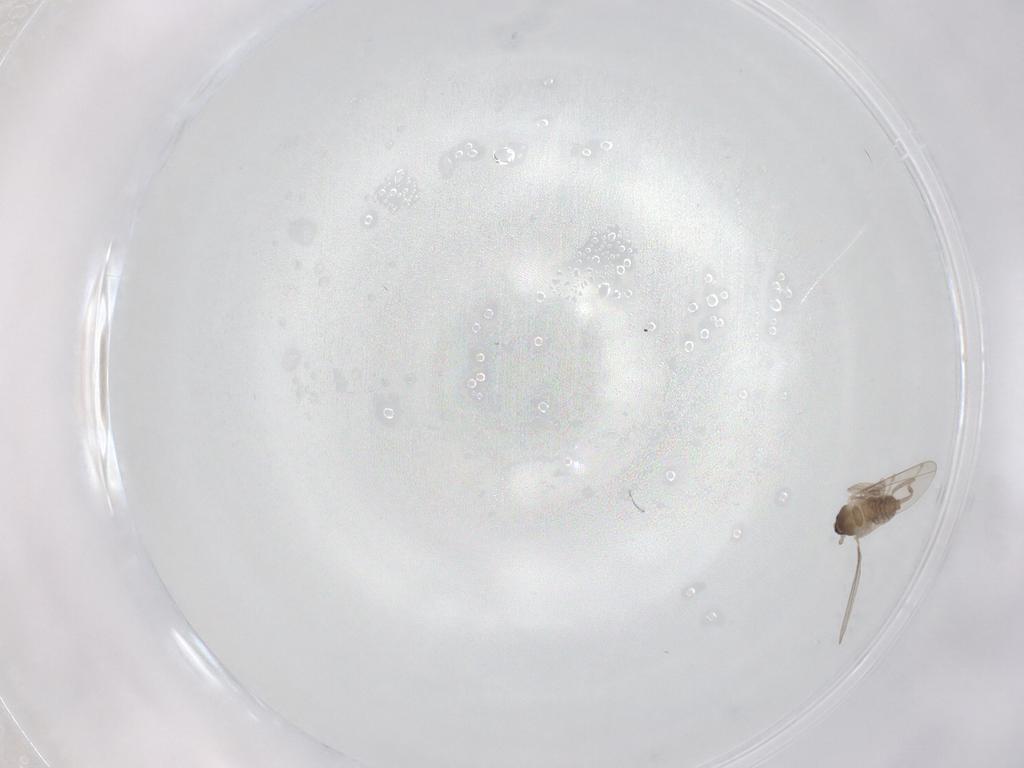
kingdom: Animalia
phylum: Arthropoda
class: Insecta
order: Diptera
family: Cecidomyiidae
